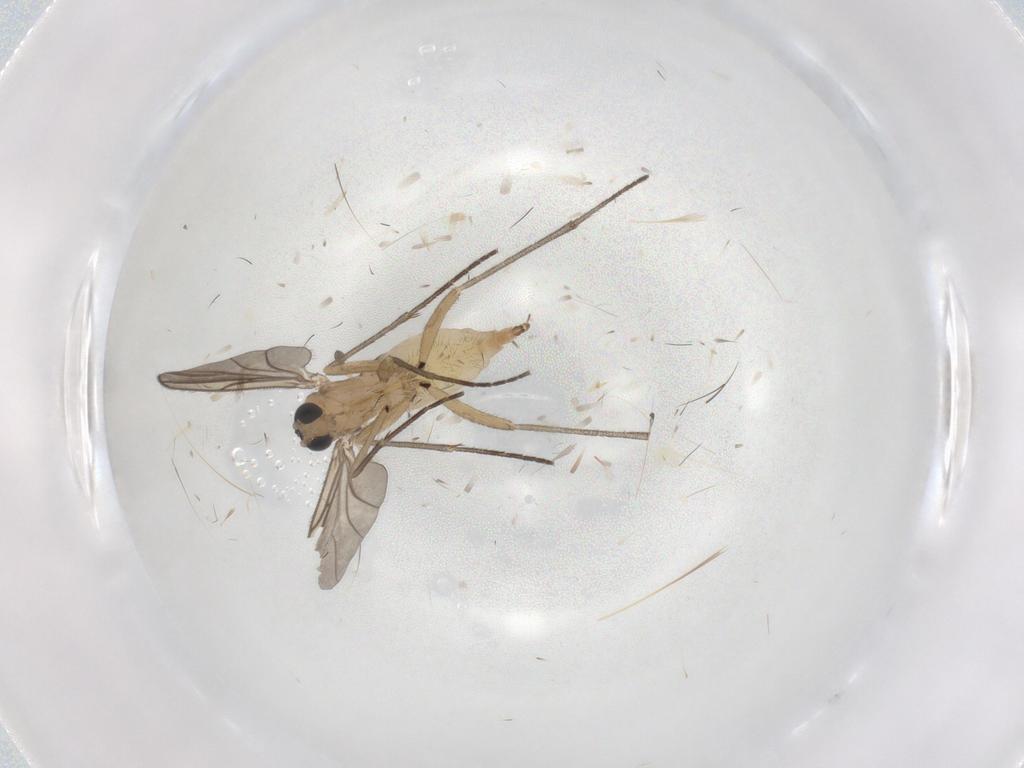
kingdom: Animalia
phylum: Arthropoda
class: Insecta
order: Diptera
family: Sciaridae
